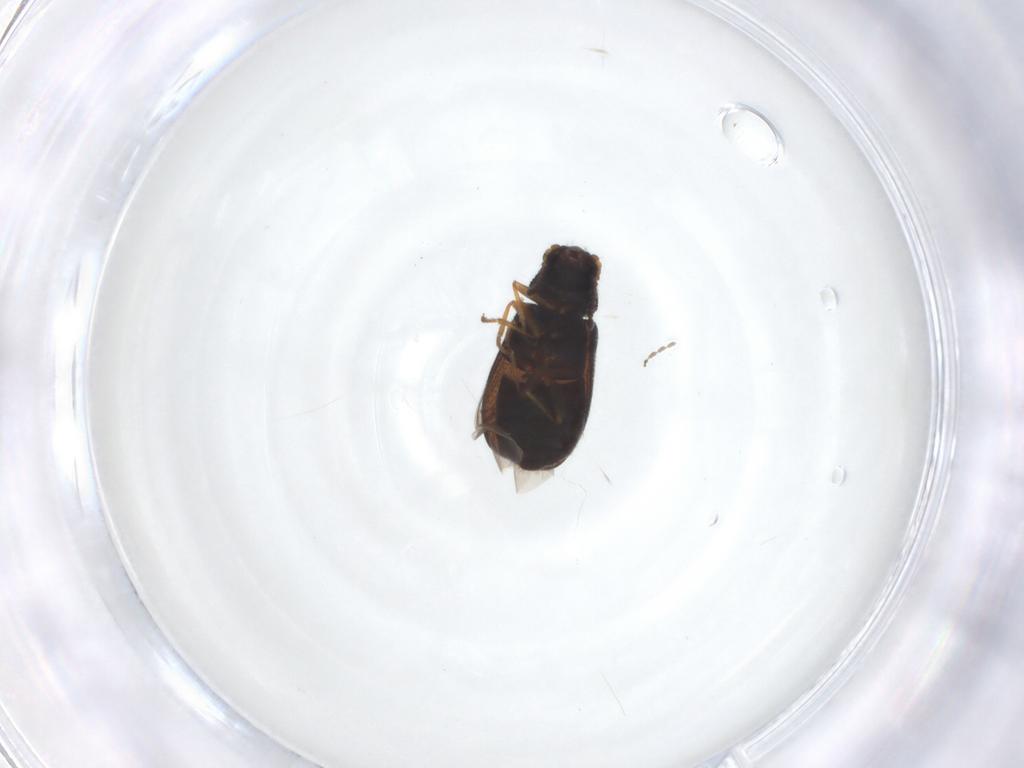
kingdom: Animalia
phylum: Arthropoda
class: Insecta
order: Coleoptera
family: Melyridae
